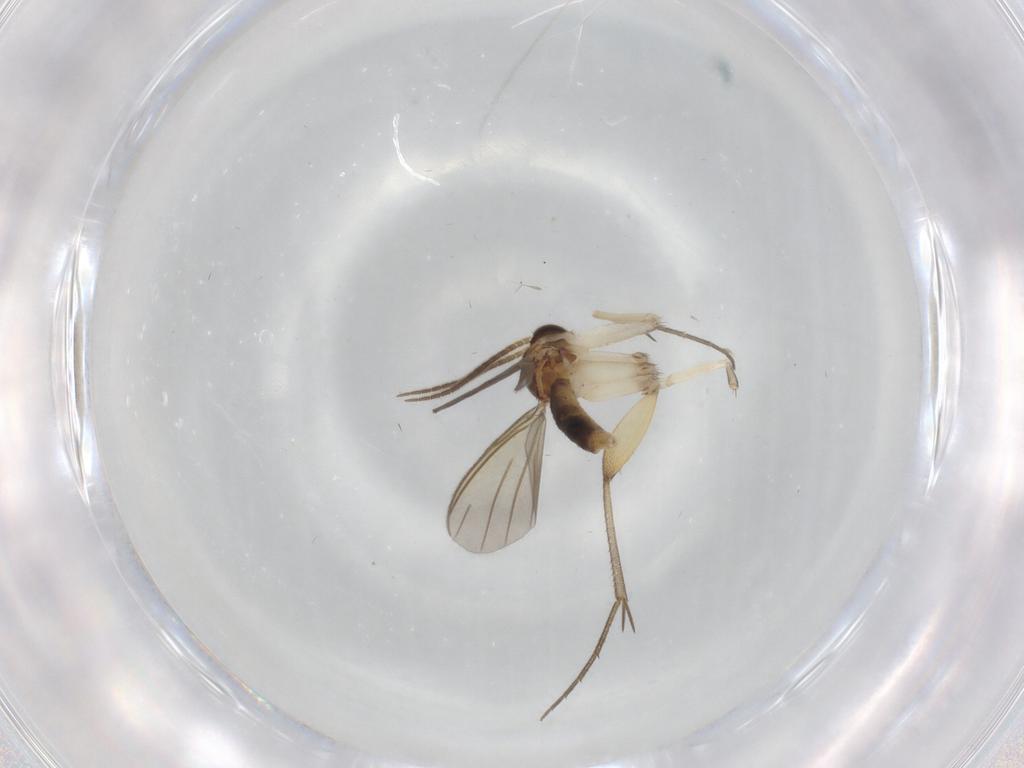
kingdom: Animalia
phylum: Arthropoda
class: Insecta
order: Diptera
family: Mycetophilidae
